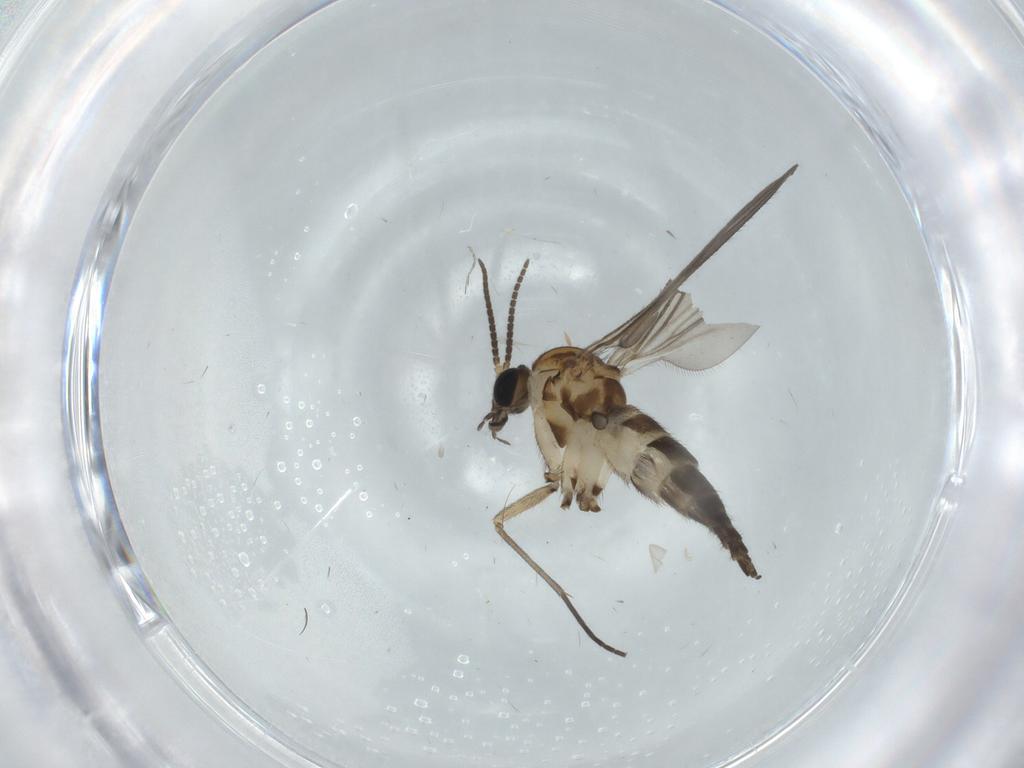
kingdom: Animalia
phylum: Arthropoda
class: Insecta
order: Diptera
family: Sciaridae
